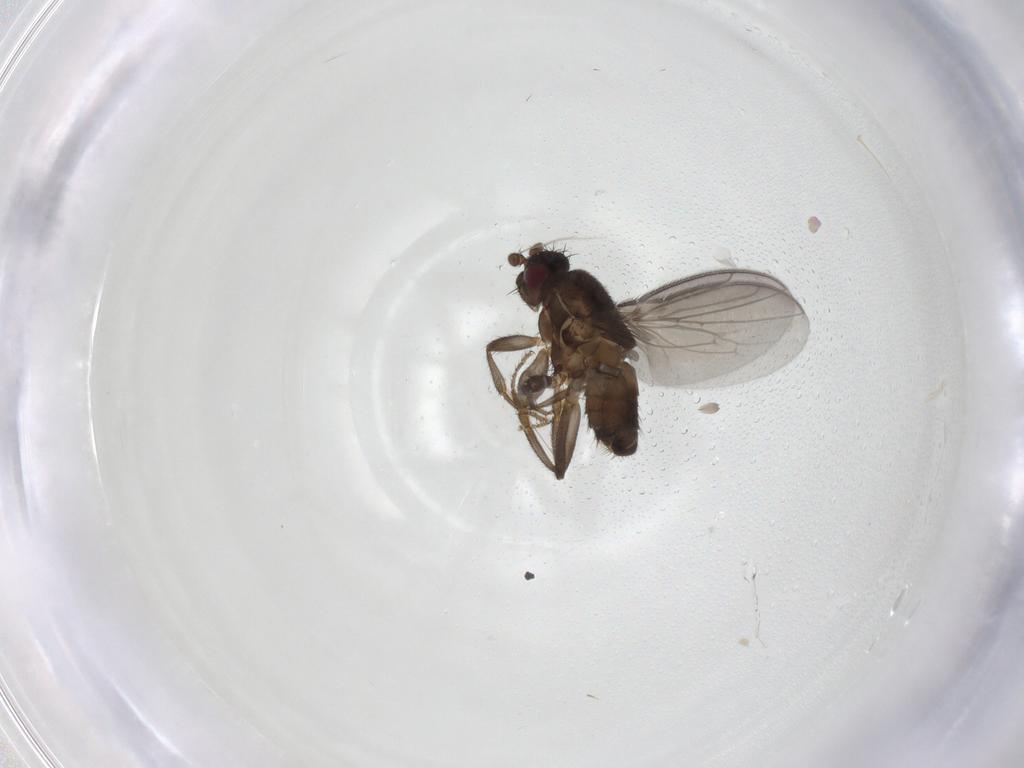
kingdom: Animalia
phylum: Arthropoda
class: Insecta
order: Diptera
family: Sphaeroceridae
